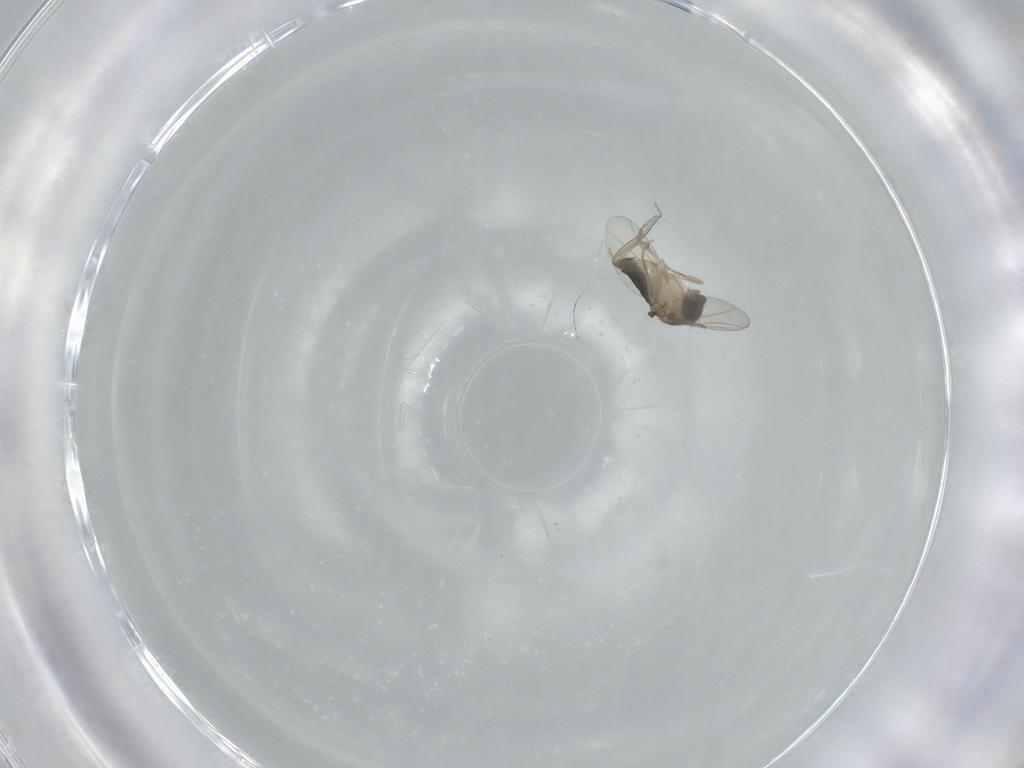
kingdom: Animalia
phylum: Arthropoda
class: Insecta
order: Diptera
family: Phoridae
